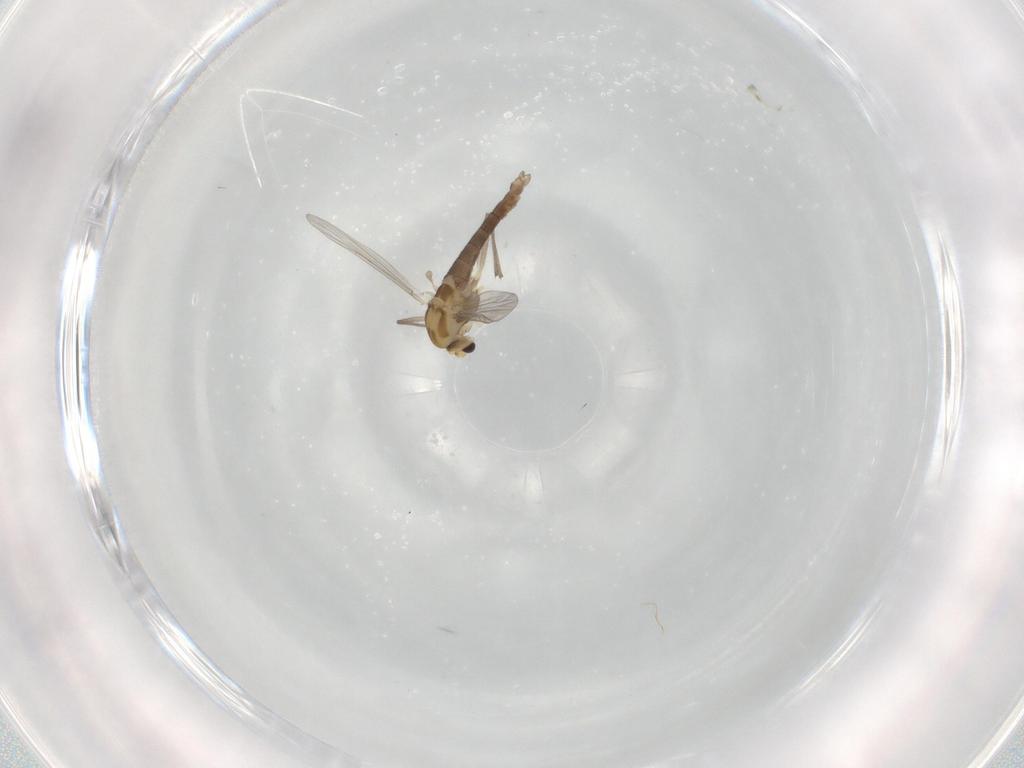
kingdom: Animalia
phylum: Arthropoda
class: Insecta
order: Diptera
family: Chironomidae
